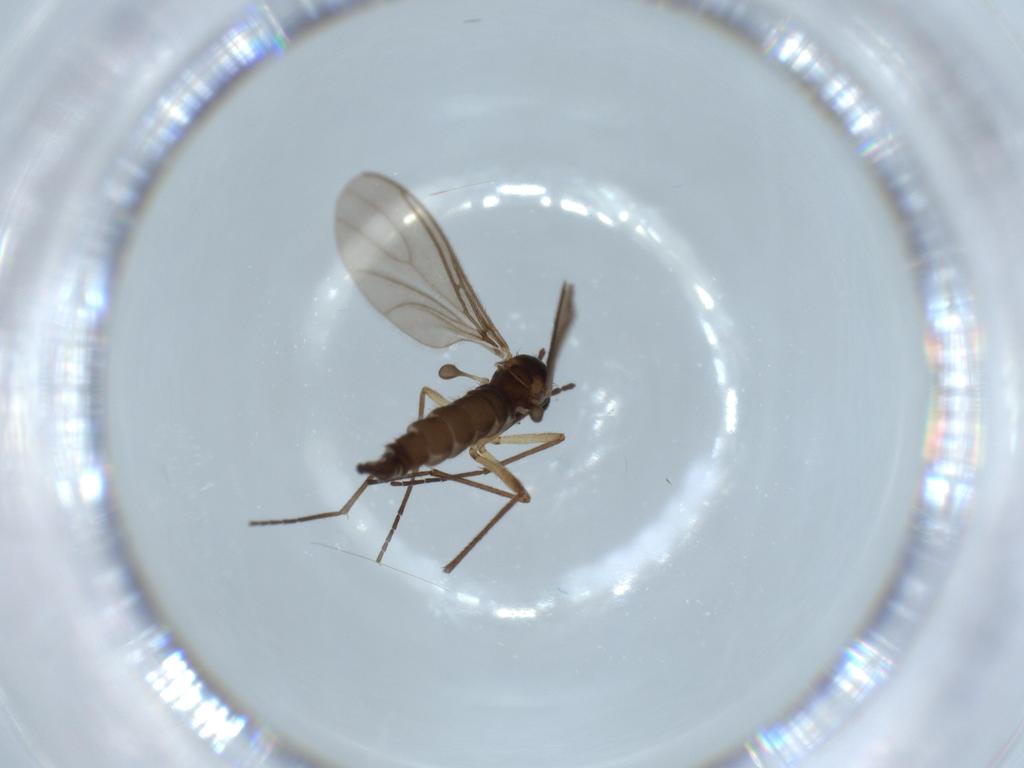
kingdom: Animalia
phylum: Arthropoda
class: Insecta
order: Diptera
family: Sciaridae
